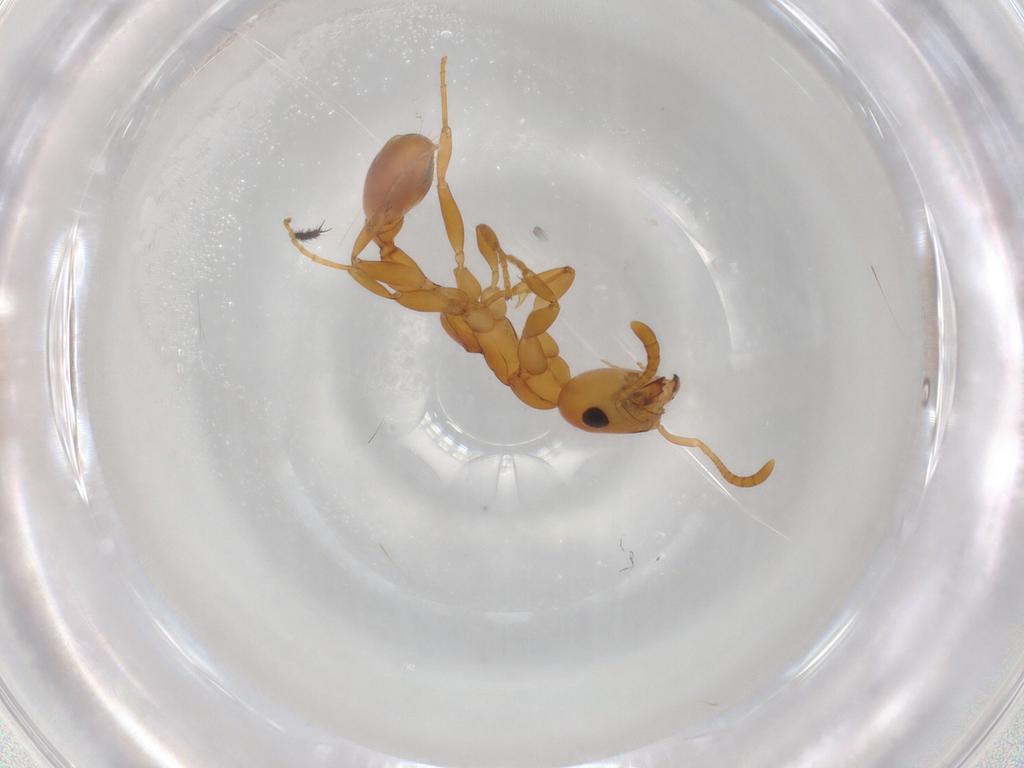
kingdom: Animalia
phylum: Arthropoda
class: Insecta
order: Hymenoptera
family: Formicidae
